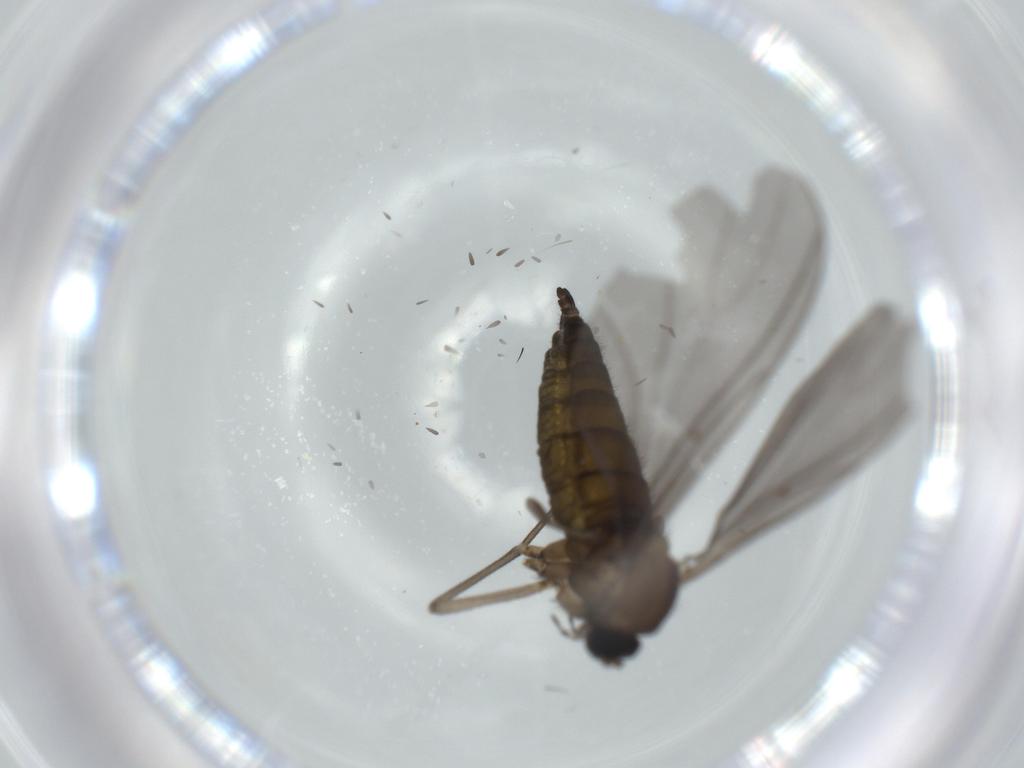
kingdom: Animalia
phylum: Arthropoda
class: Insecta
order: Diptera
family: Sciaridae
